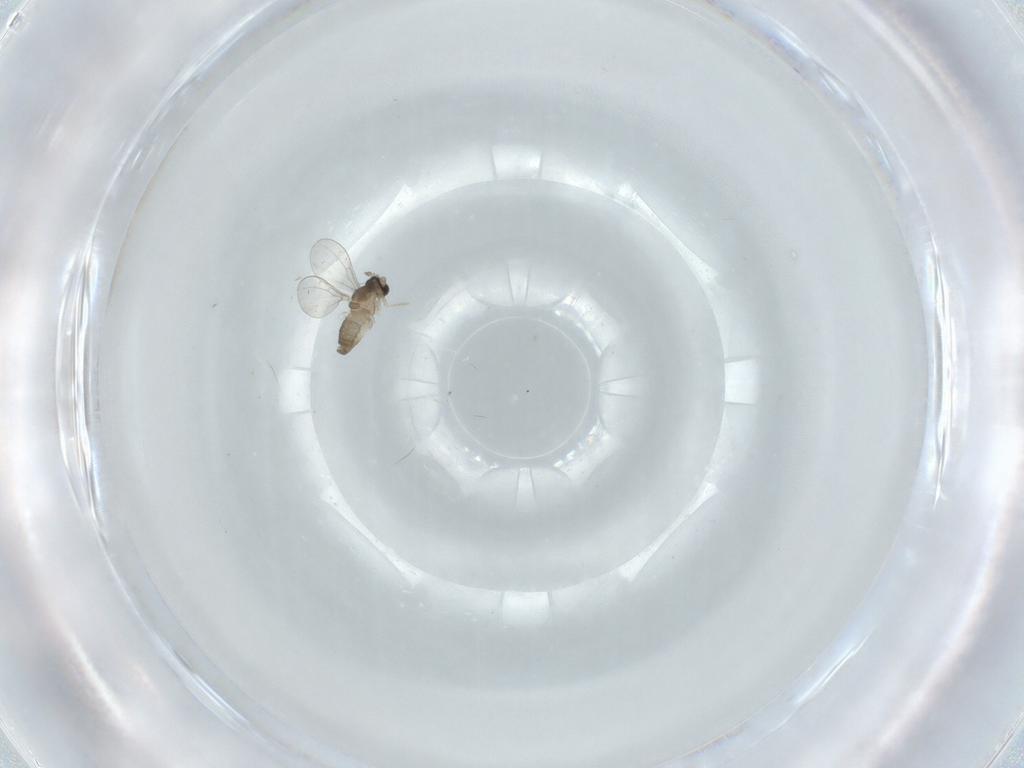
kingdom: Animalia
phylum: Arthropoda
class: Insecta
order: Diptera
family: Cecidomyiidae
